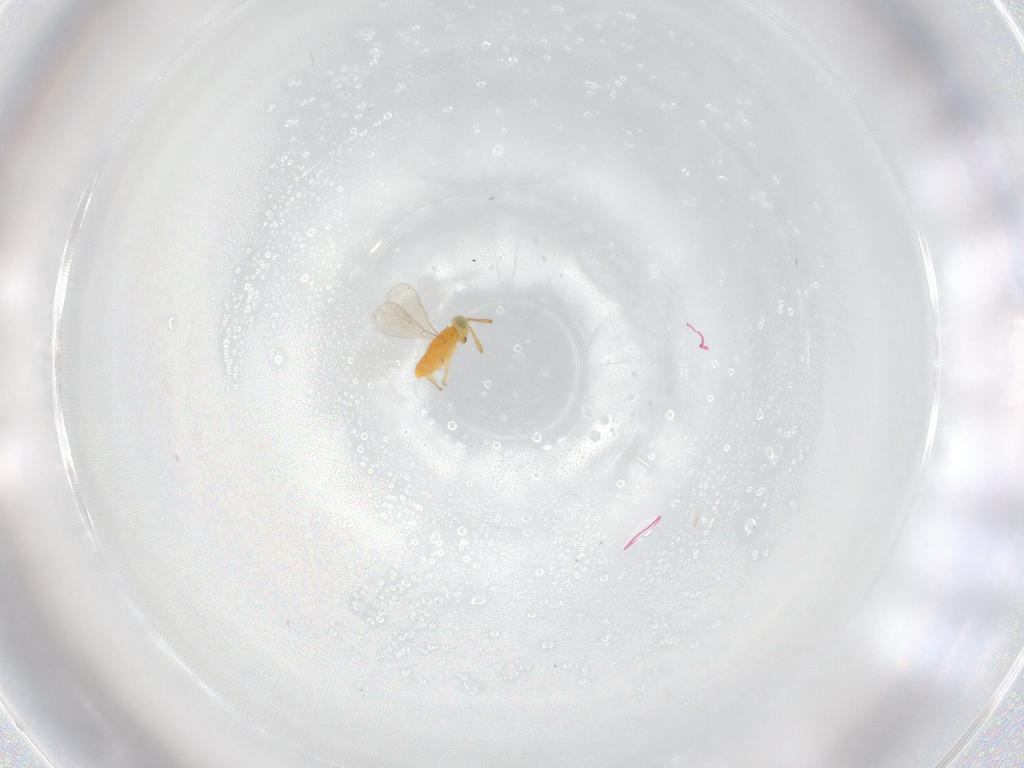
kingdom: Animalia
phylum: Arthropoda
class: Insecta
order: Hymenoptera
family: Aphelinidae
